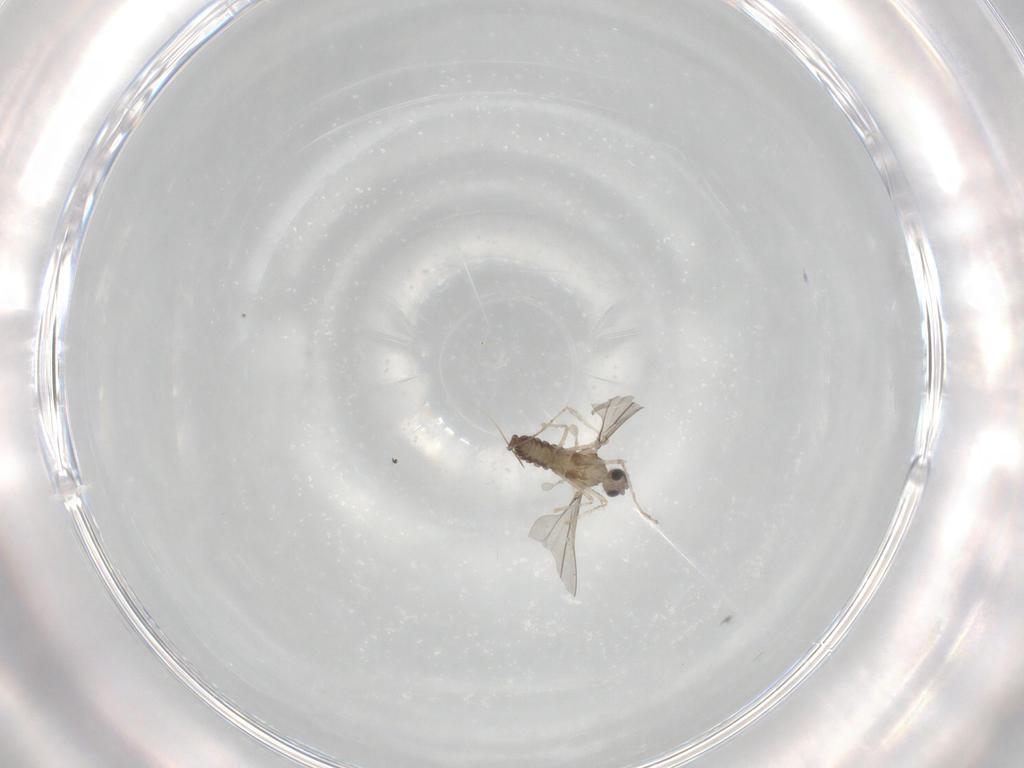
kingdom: Animalia
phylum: Arthropoda
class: Insecta
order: Diptera
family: Cecidomyiidae
